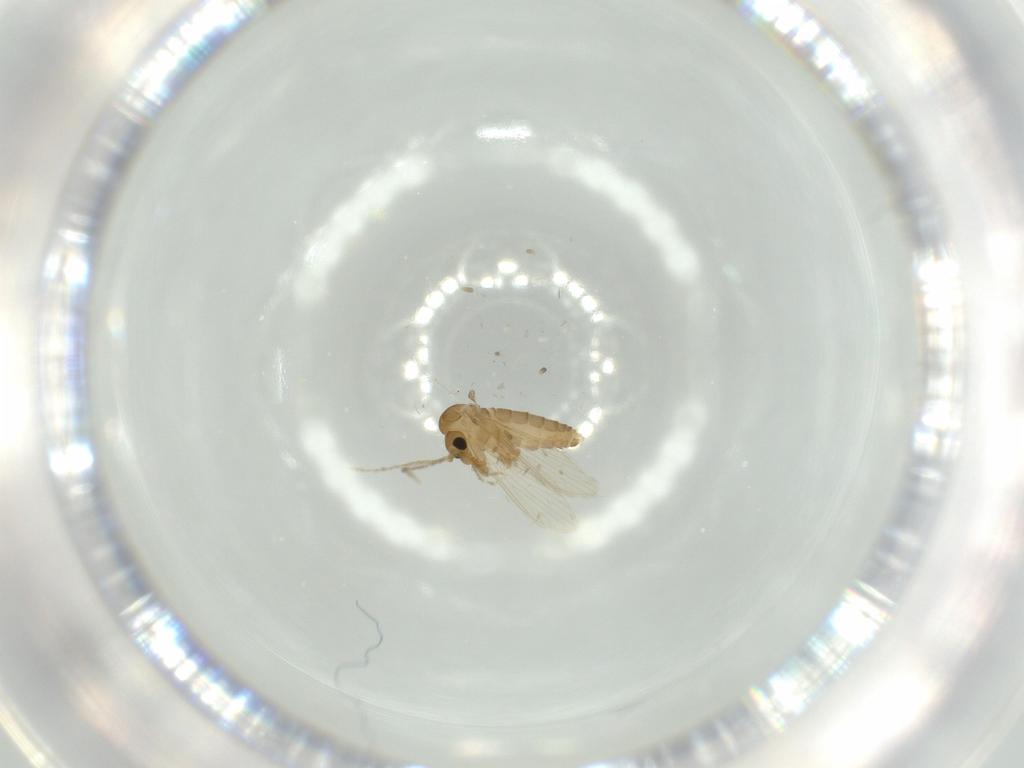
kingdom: Animalia
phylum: Arthropoda
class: Insecta
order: Diptera
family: Psychodidae
